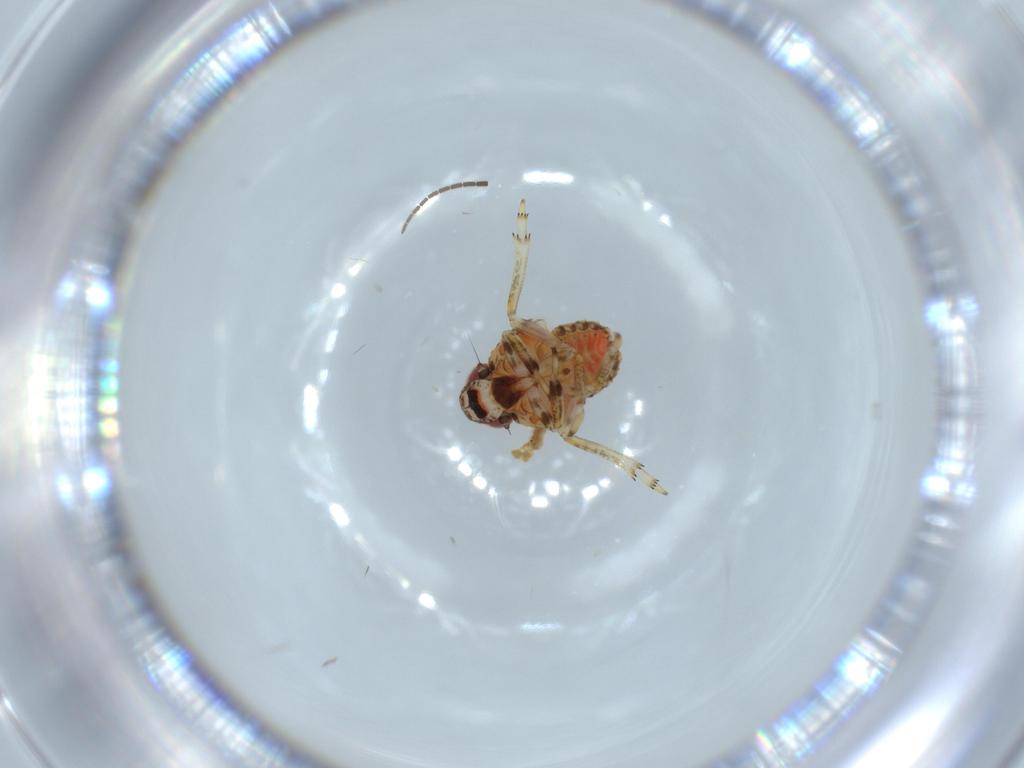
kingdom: Animalia
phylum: Arthropoda
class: Insecta
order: Hemiptera
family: Issidae
